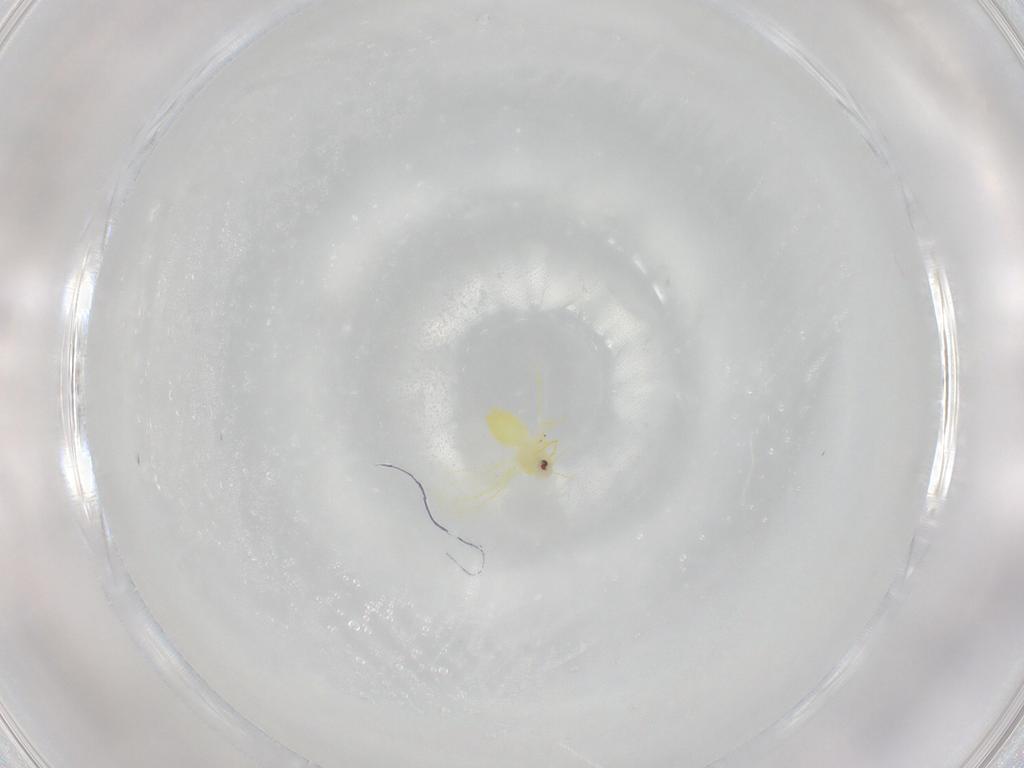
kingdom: Animalia
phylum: Arthropoda
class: Insecta
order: Hemiptera
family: Aleyrodidae
